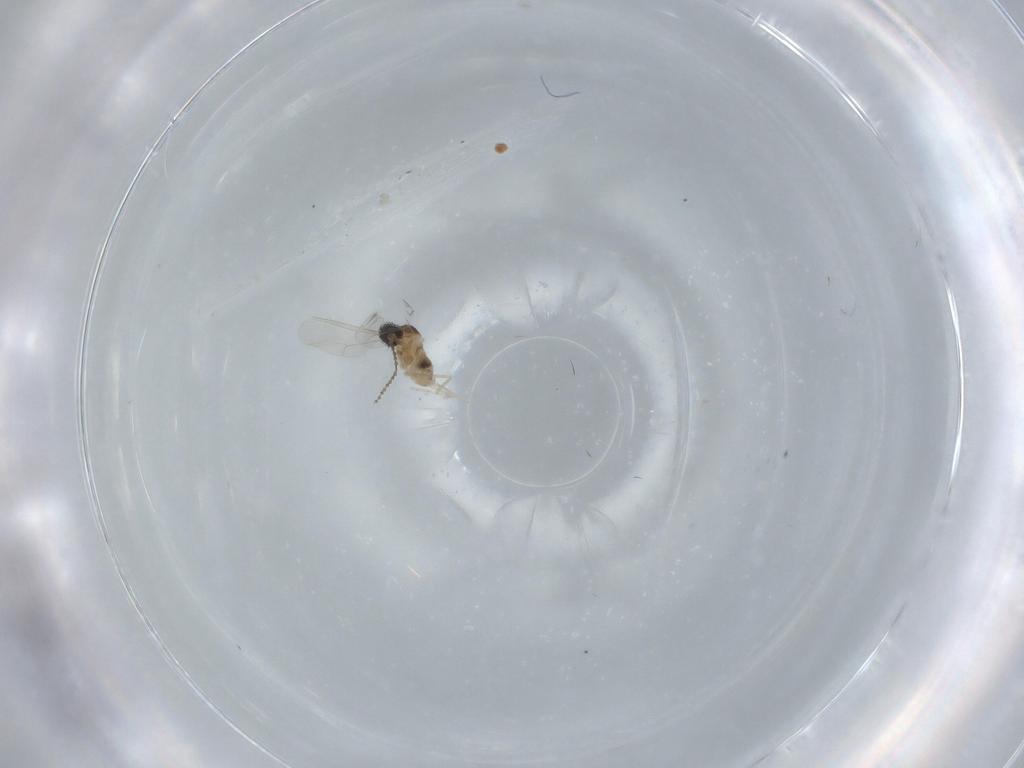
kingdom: Animalia
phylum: Arthropoda
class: Insecta
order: Diptera
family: Cecidomyiidae
